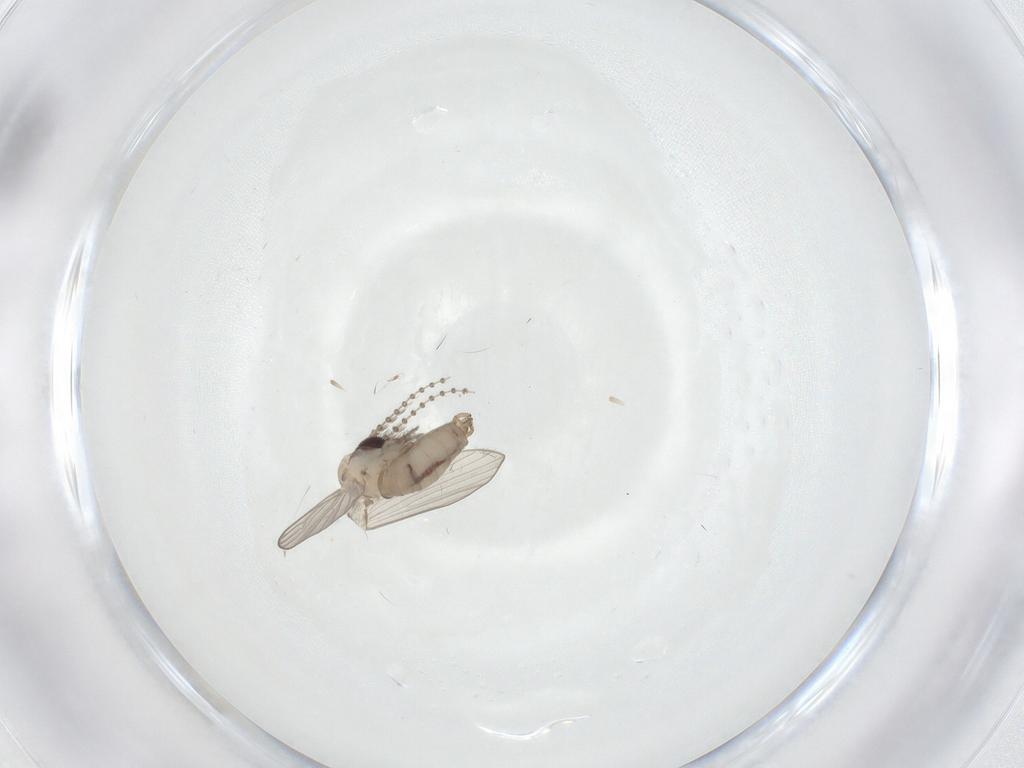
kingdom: Animalia
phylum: Arthropoda
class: Insecta
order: Diptera
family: Psychodidae
